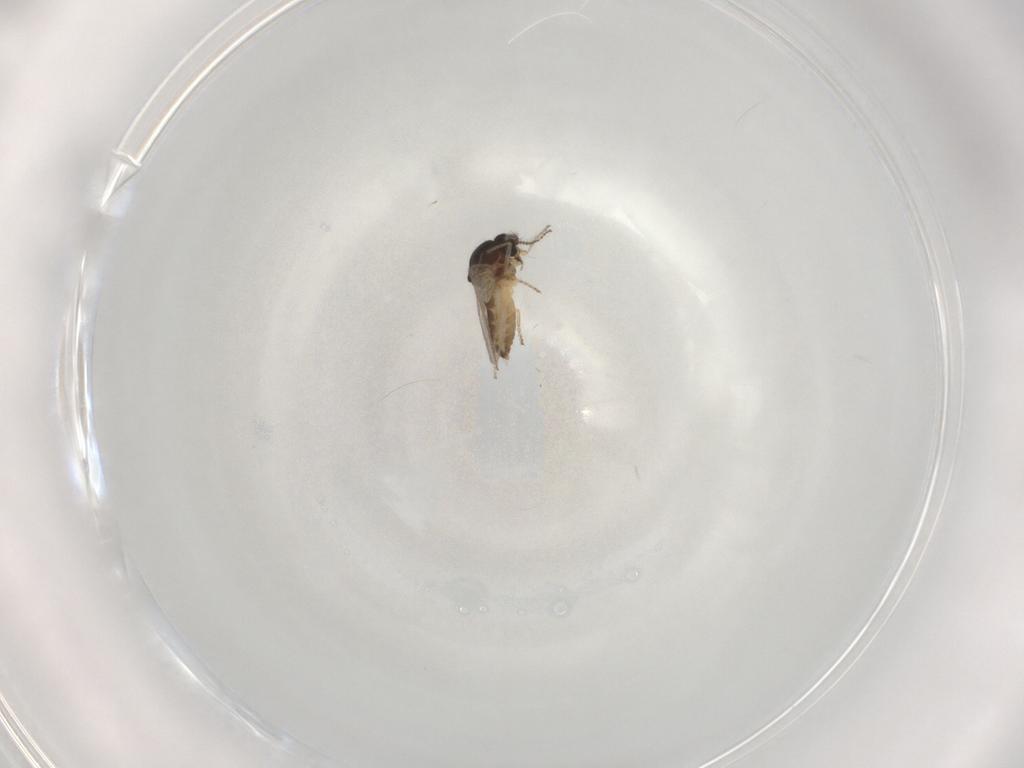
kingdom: Animalia
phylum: Arthropoda
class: Insecta
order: Diptera
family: Ceratopogonidae
